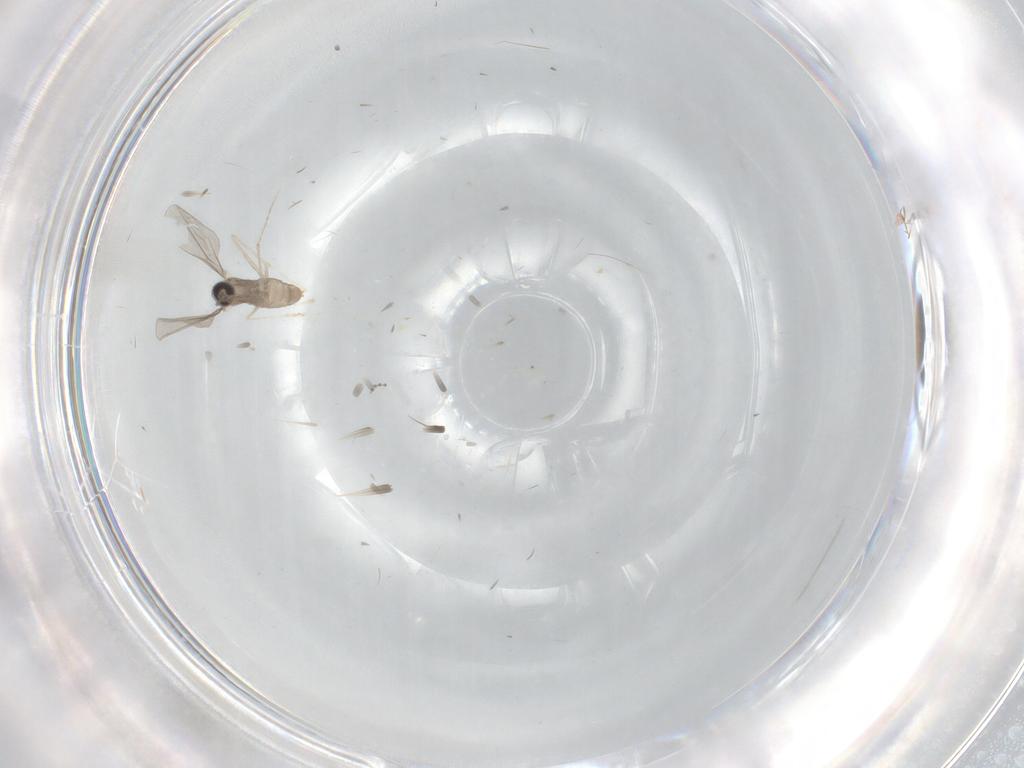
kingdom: Animalia
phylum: Arthropoda
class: Insecta
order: Diptera
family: Cecidomyiidae
